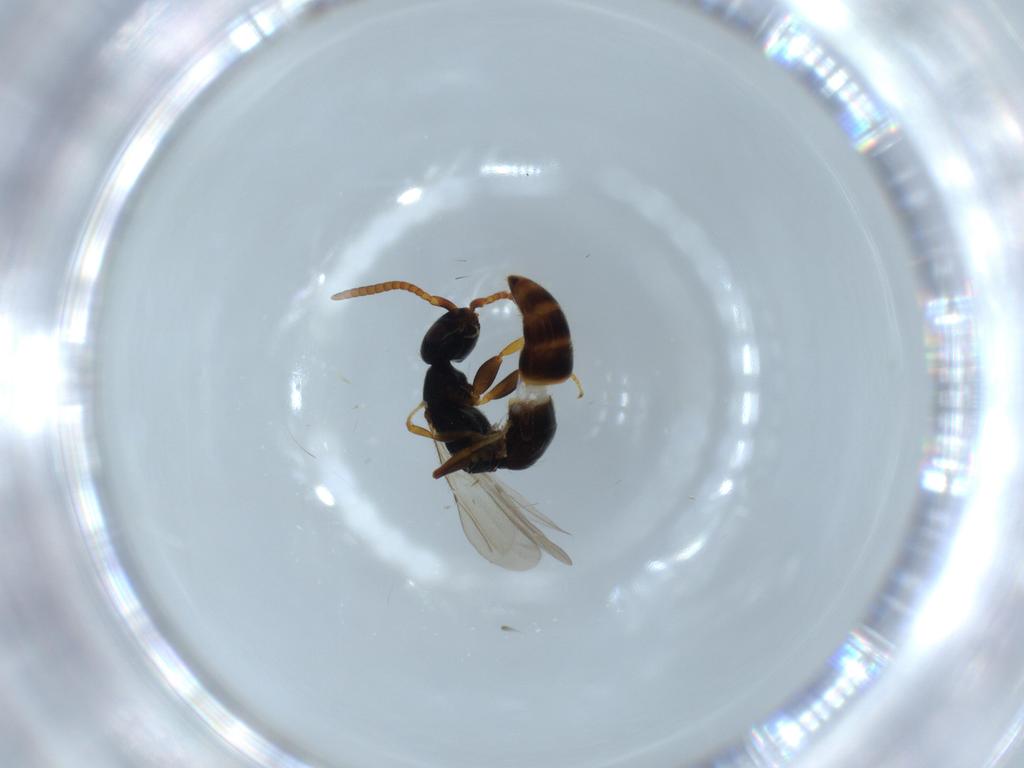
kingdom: Animalia
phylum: Arthropoda
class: Insecta
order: Hymenoptera
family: Bethylidae
